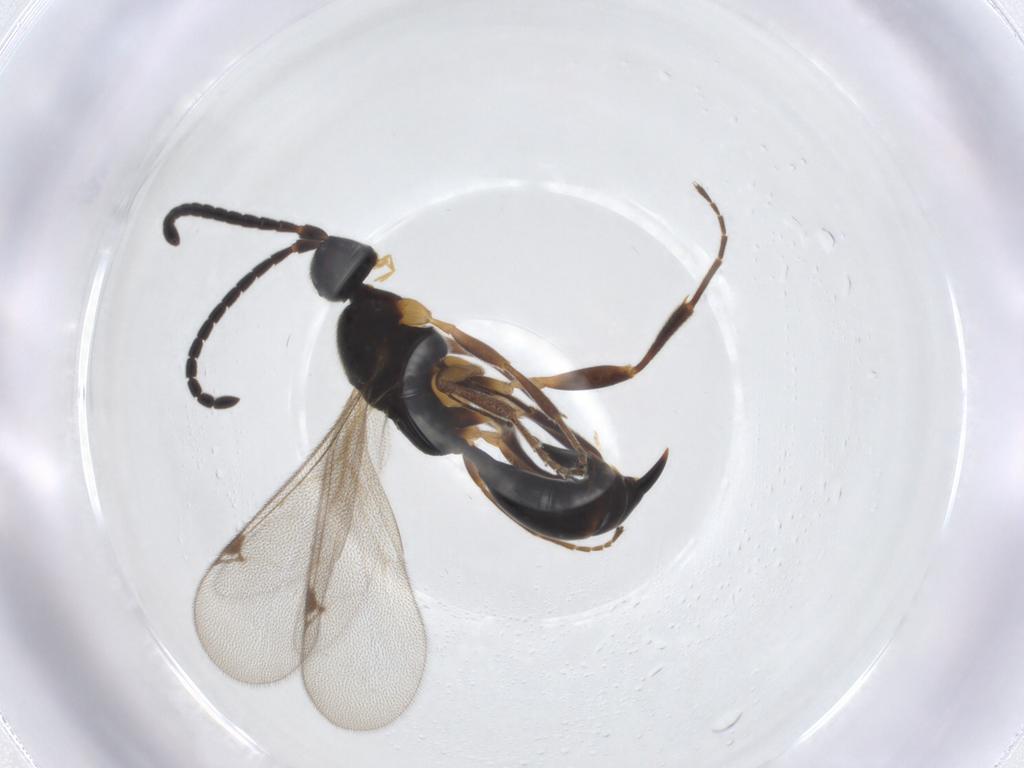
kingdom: Animalia
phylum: Arthropoda
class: Insecta
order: Hymenoptera
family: Proctotrupidae
